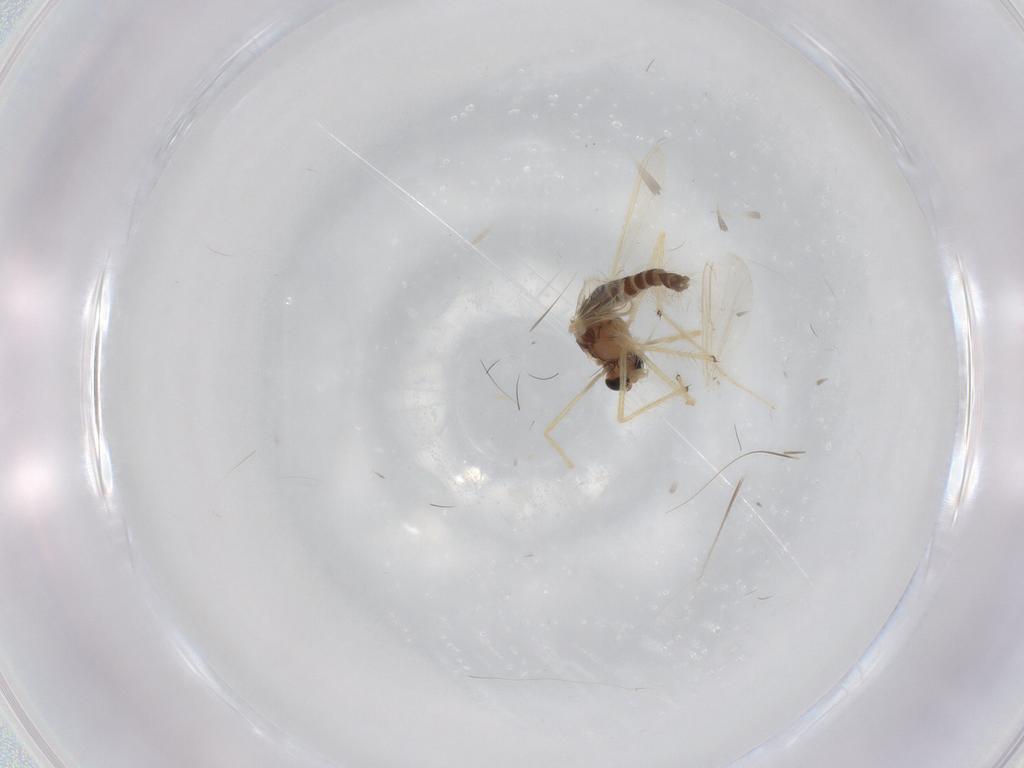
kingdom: Animalia
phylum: Arthropoda
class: Insecta
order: Diptera
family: Chironomidae
